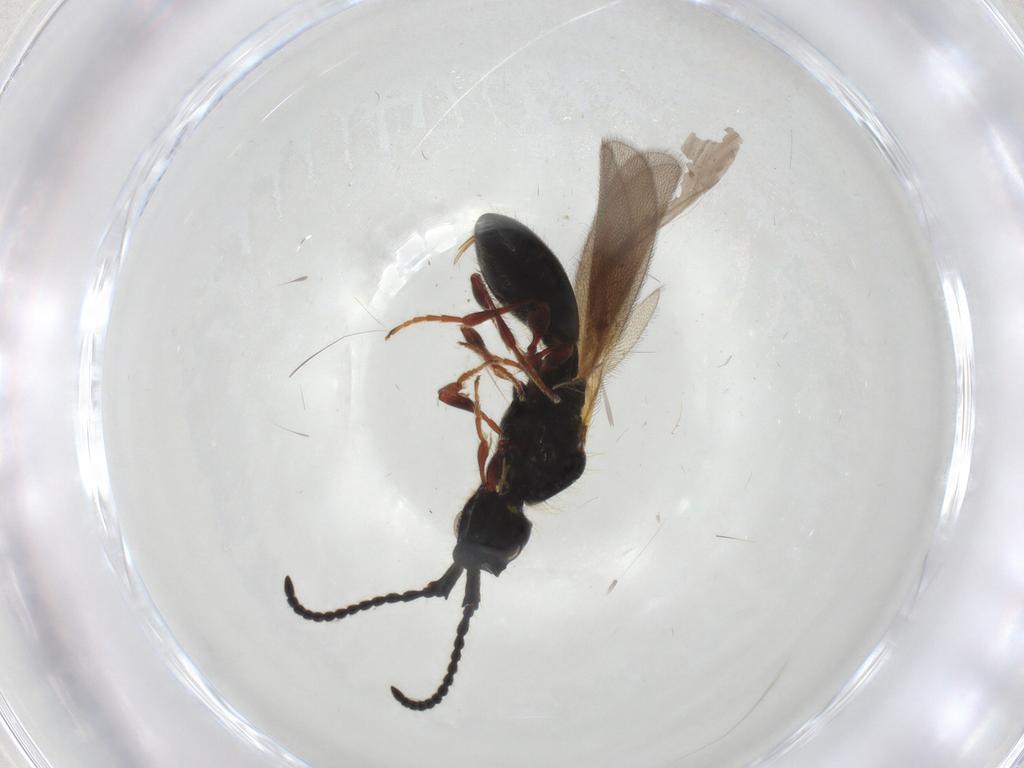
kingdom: Animalia
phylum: Arthropoda
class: Insecta
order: Hymenoptera
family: Diapriidae
